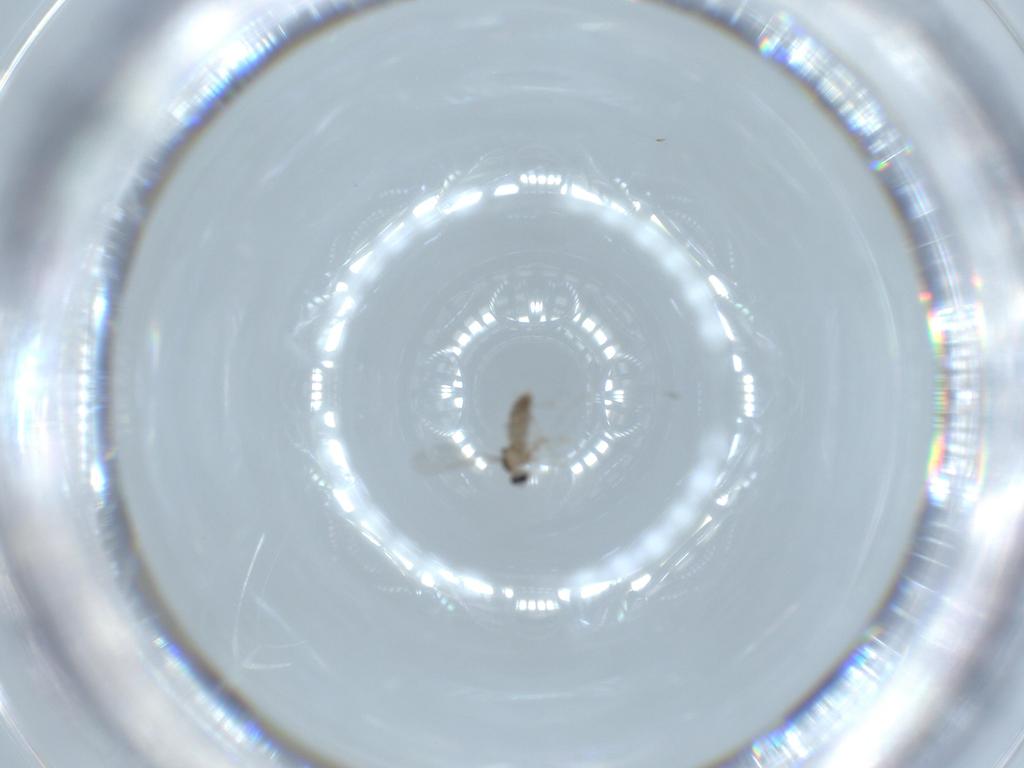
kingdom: Animalia
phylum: Arthropoda
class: Insecta
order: Diptera
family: Cecidomyiidae
